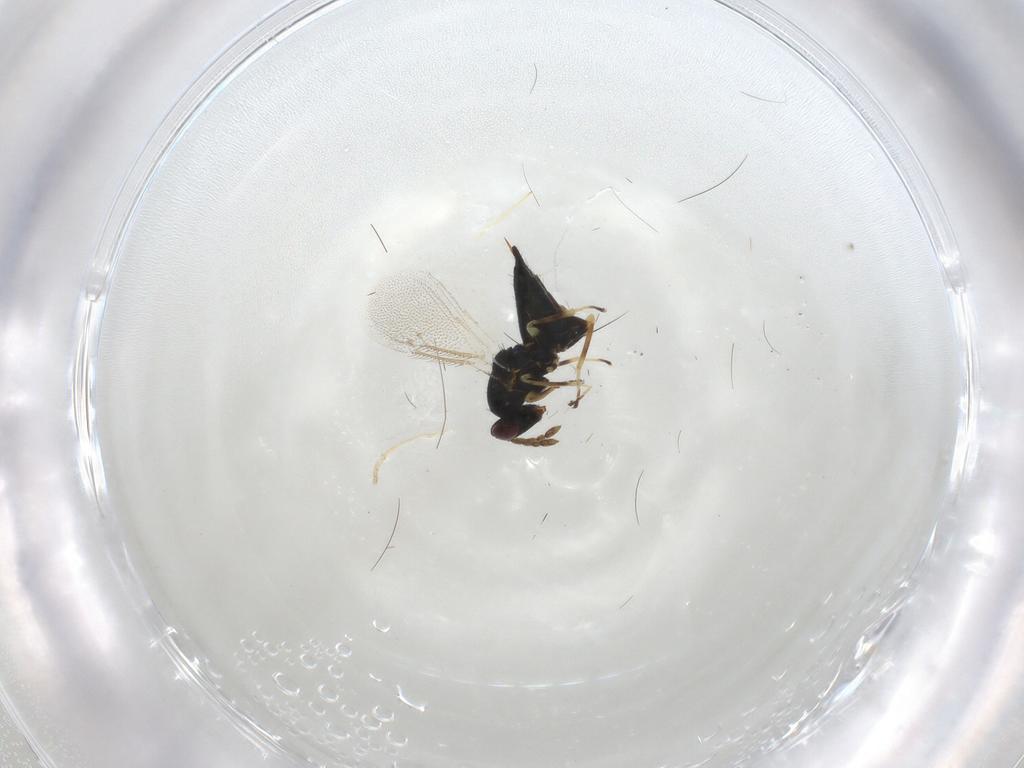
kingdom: Animalia
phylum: Arthropoda
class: Insecta
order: Hymenoptera
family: Eulophidae
